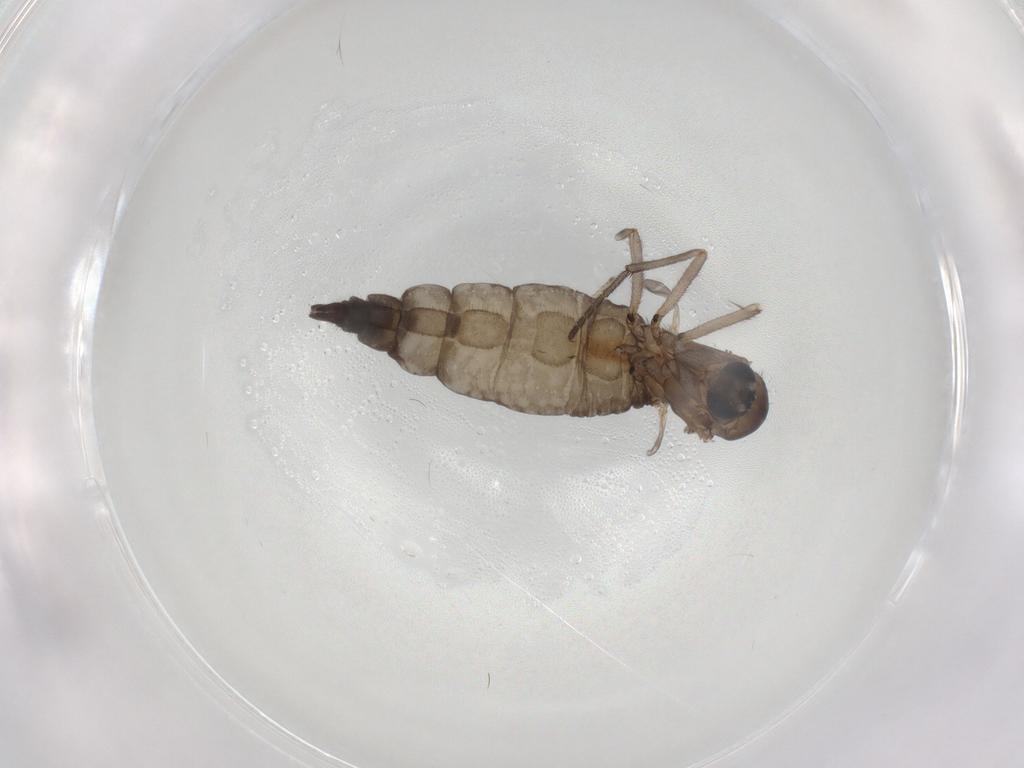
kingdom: Animalia
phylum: Arthropoda
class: Insecta
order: Diptera
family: Sciaridae
